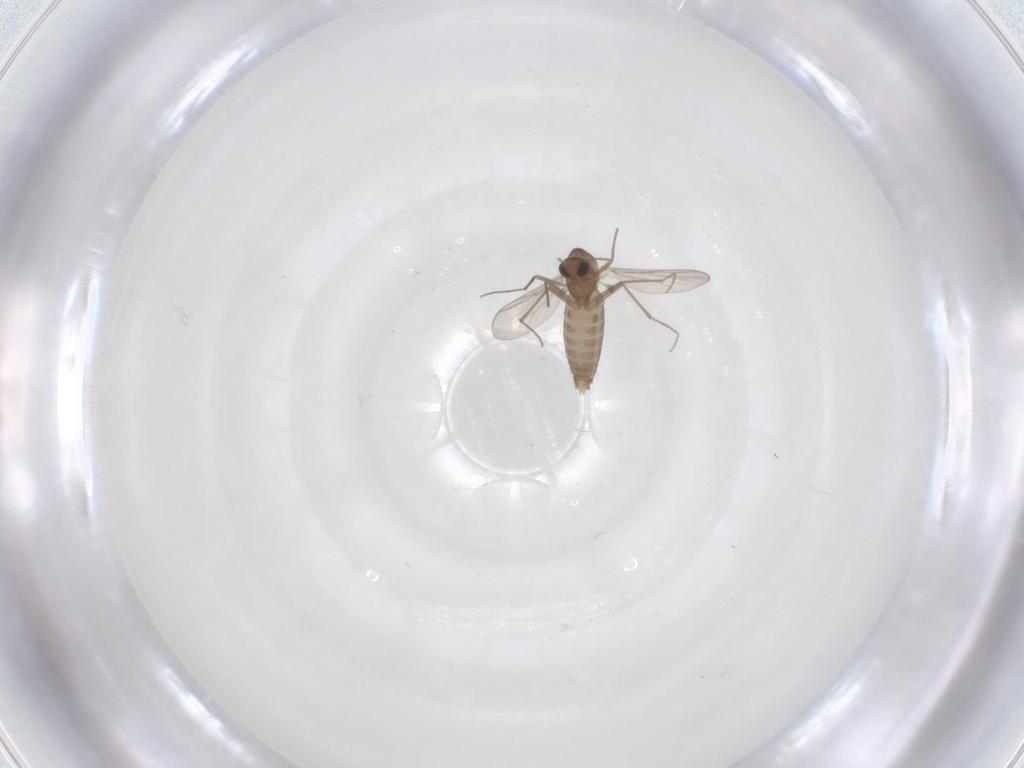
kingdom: Animalia
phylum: Arthropoda
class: Insecta
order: Diptera
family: Chironomidae
